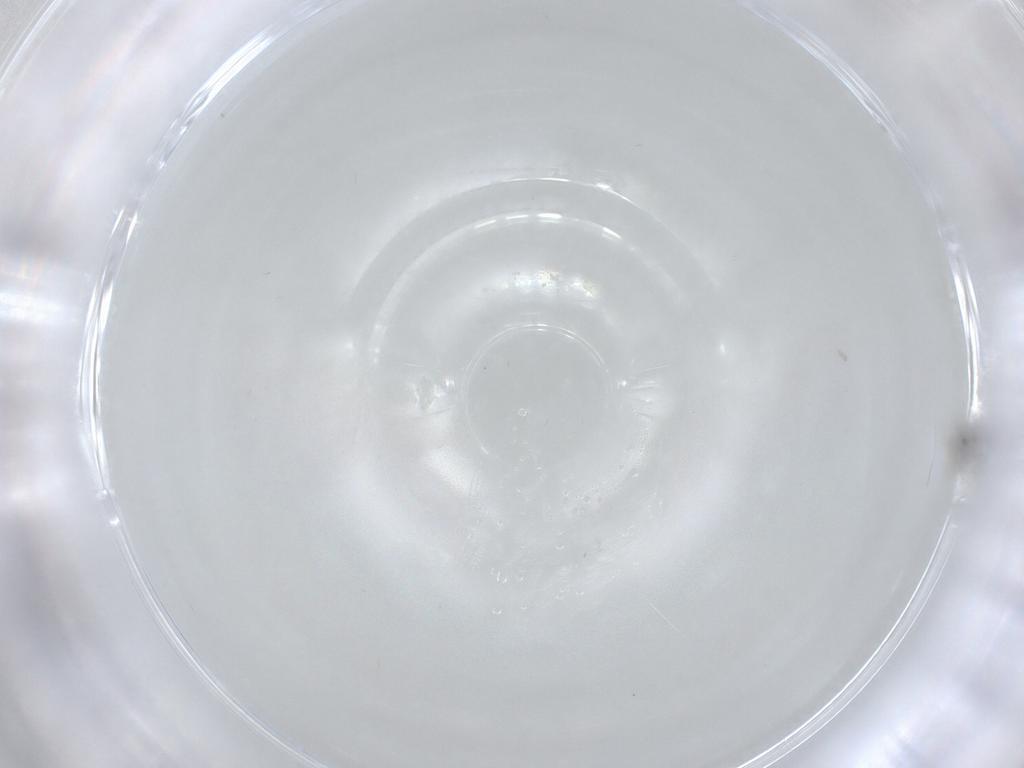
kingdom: Animalia
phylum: Arthropoda
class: Insecta
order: Diptera
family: Cecidomyiidae
